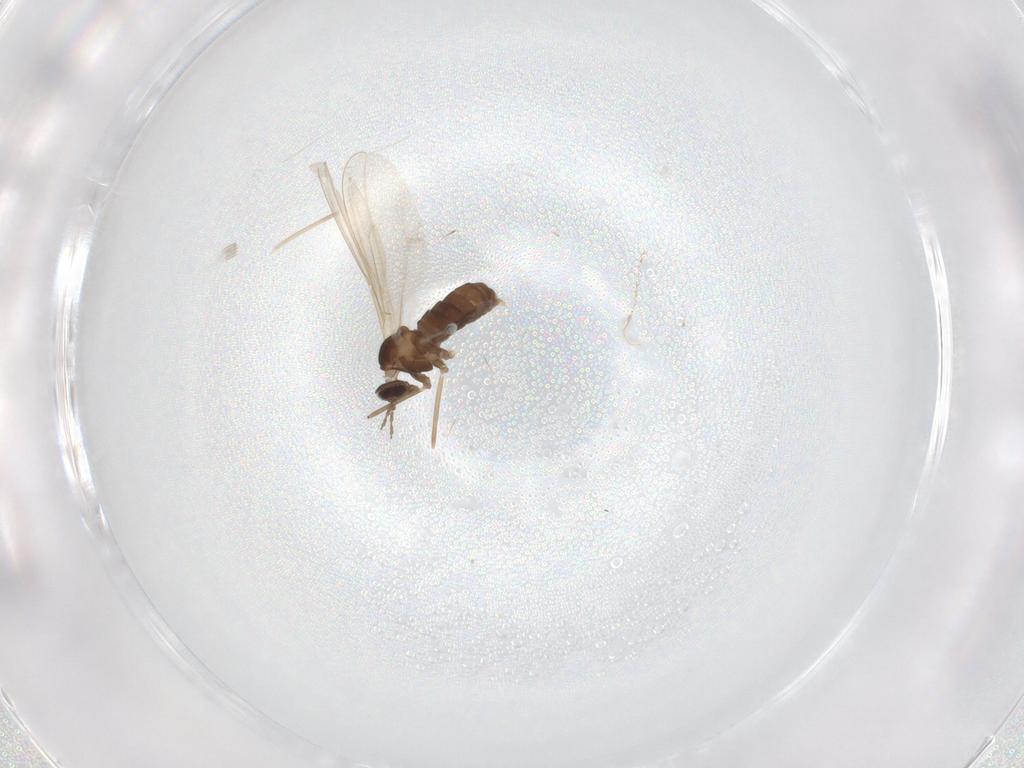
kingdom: Animalia
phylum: Arthropoda
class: Insecta
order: Diptera
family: Cecidomyiidae
